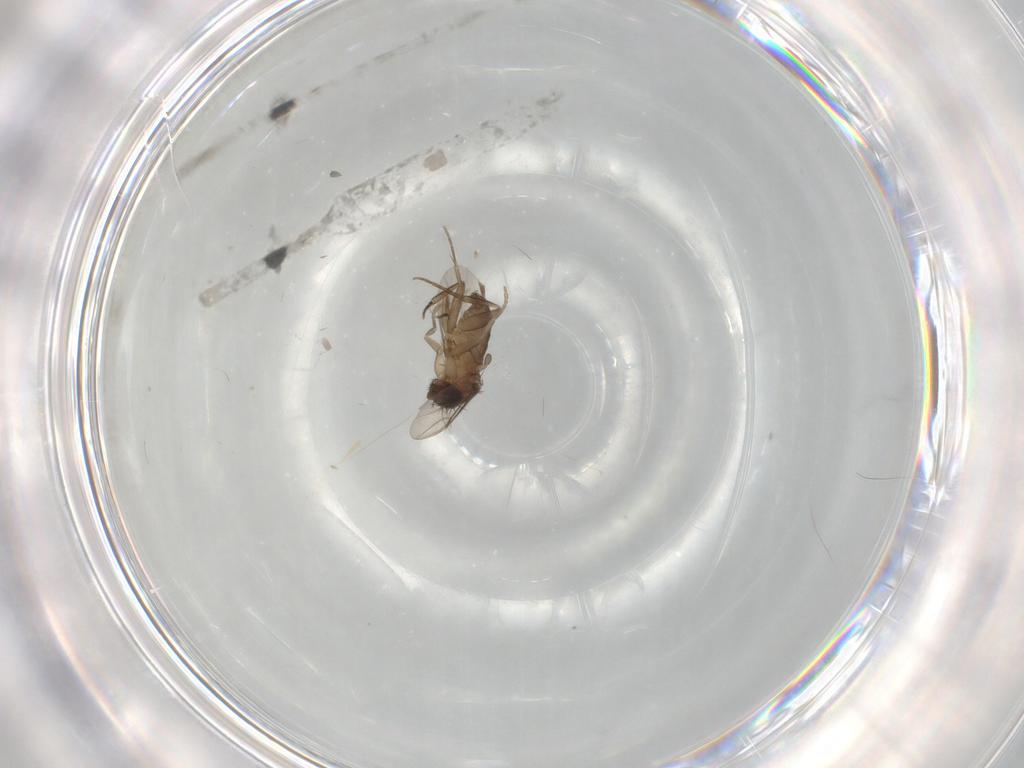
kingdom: Animalia
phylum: Arthropoda
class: Insecta
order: Diptera
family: Phoridae
